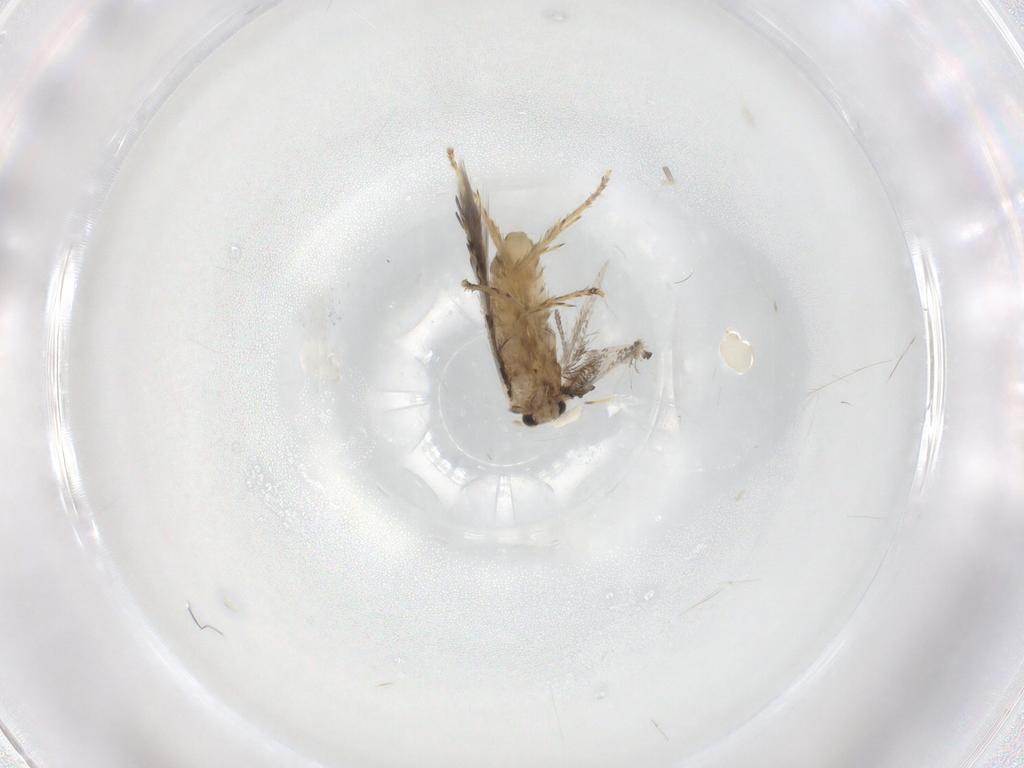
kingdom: Animalia
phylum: Arthropoda
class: Insecta
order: Lepidoptera
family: Nepticulidae
